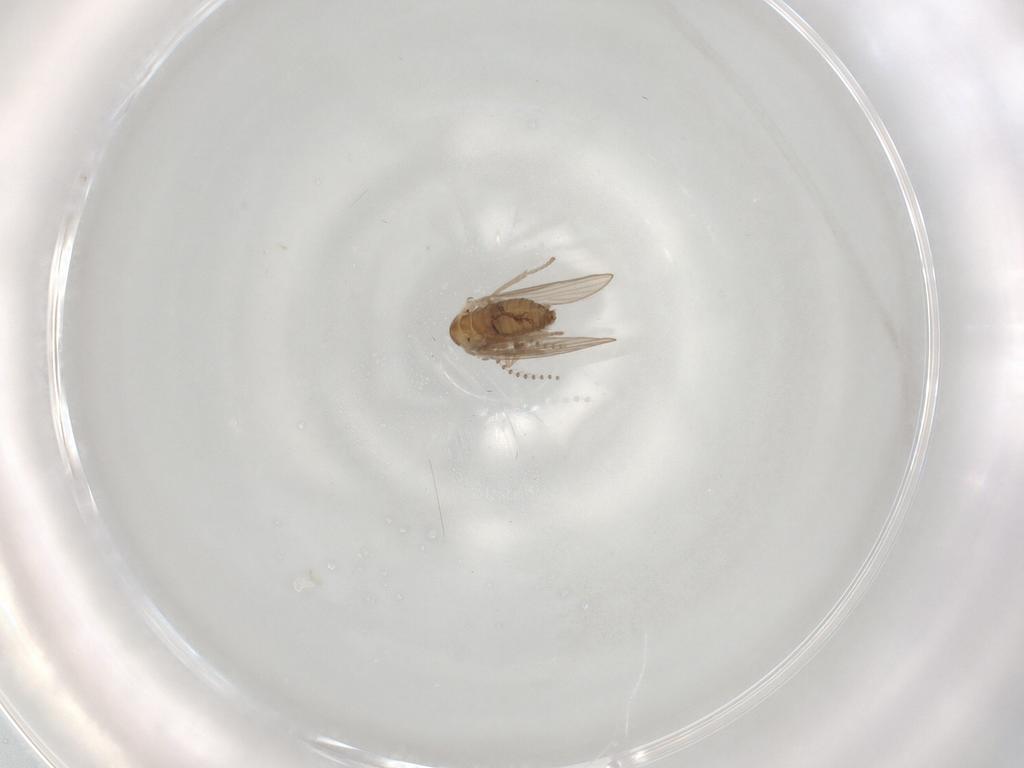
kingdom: Animalia
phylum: Arthropoda
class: Insecta
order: Diptera
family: Psychodidae
